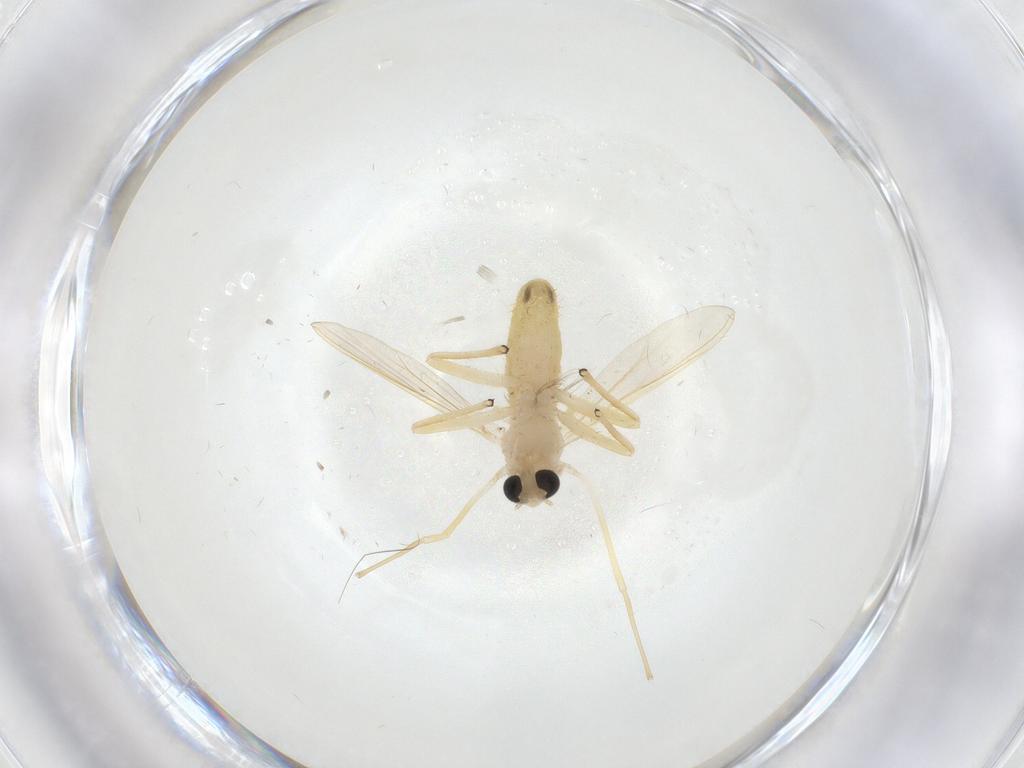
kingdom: Animalia
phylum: Arthropoda
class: Insecta
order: Diptera
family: Chironomidae
